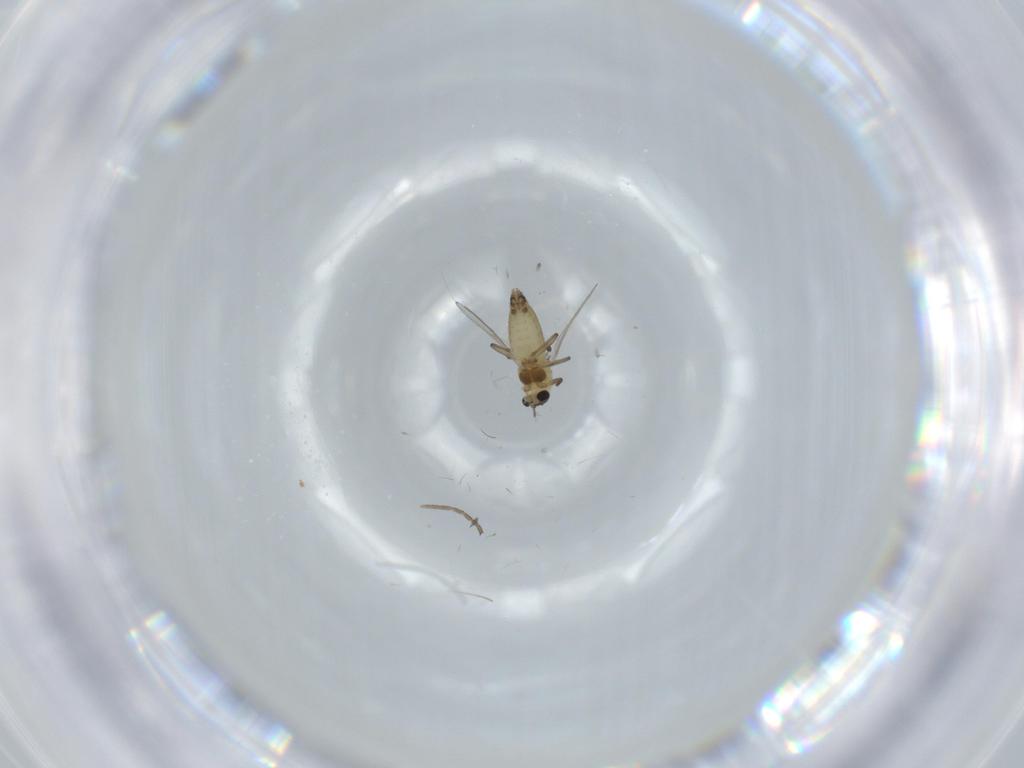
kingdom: Animalia
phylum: Arthropoda
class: Insecta
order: Diptera
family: Chironomidae
